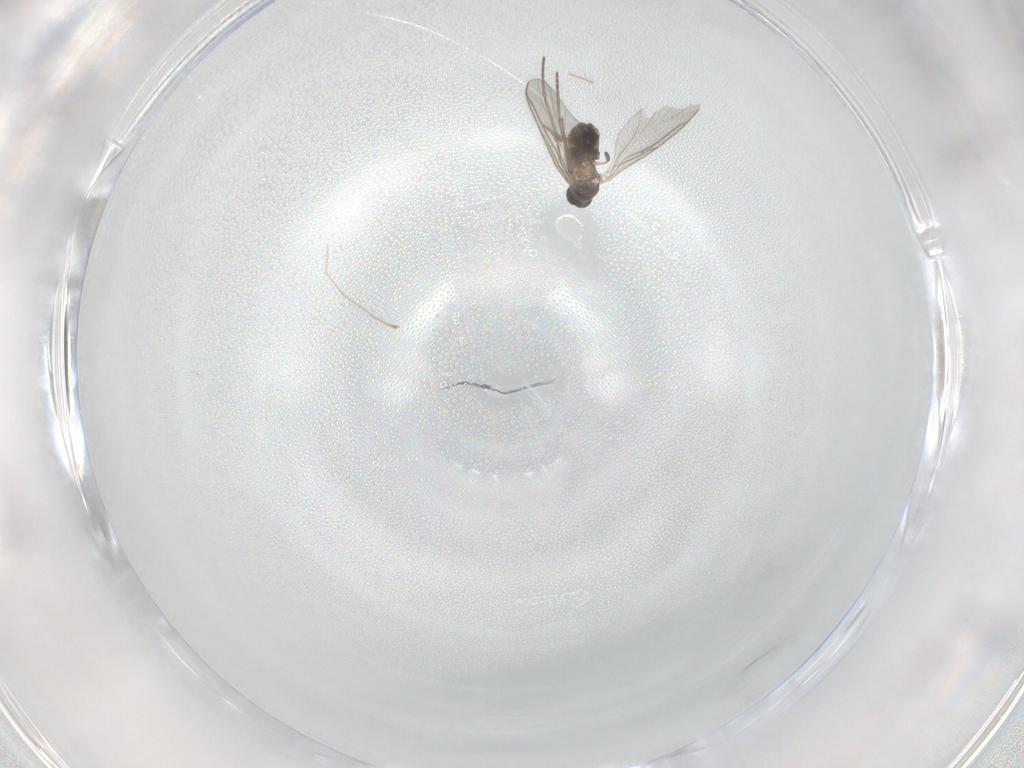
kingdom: Animalia
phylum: Arthropoda
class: Insecta
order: Diptera
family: Sciaridae
